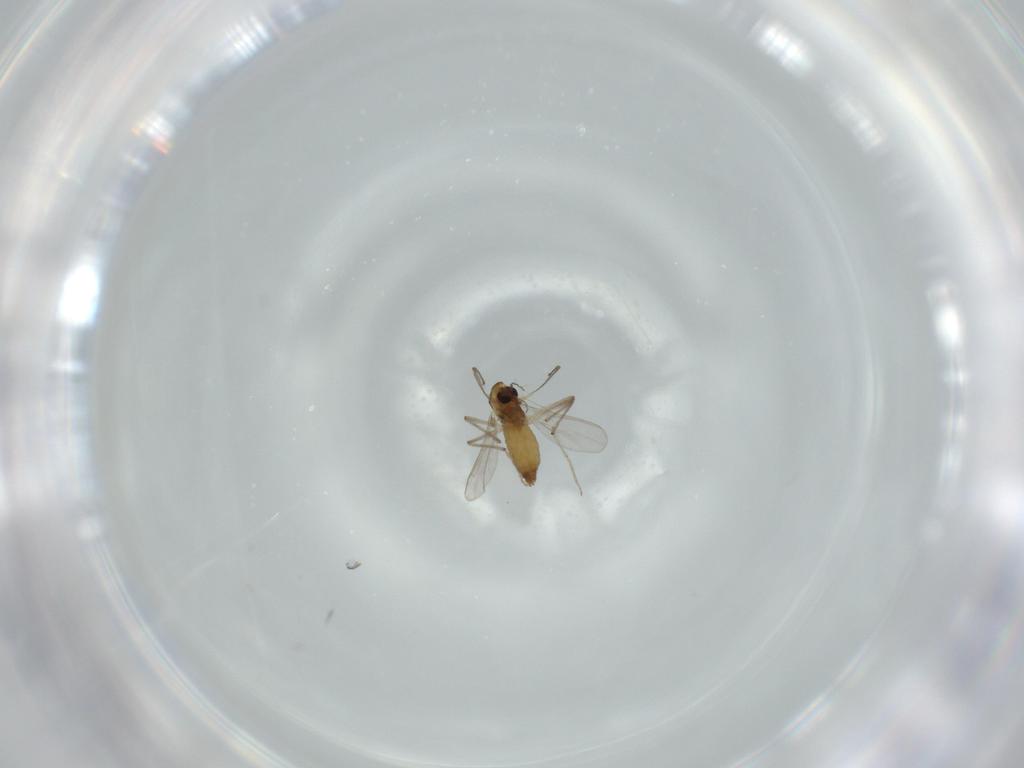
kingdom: Animalia
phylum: Arthropoda
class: Insecta
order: Diptera
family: Chironomidae
